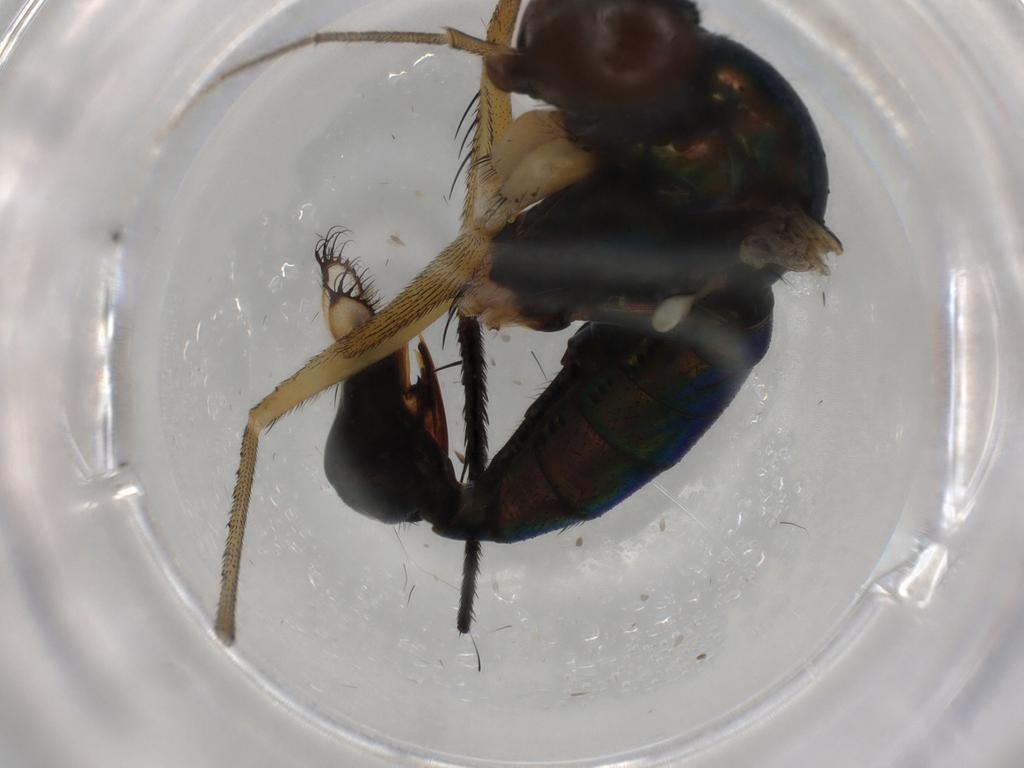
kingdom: Animalia
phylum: Arthropoda
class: Insecta
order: Diptera
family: Dolichopodidae
